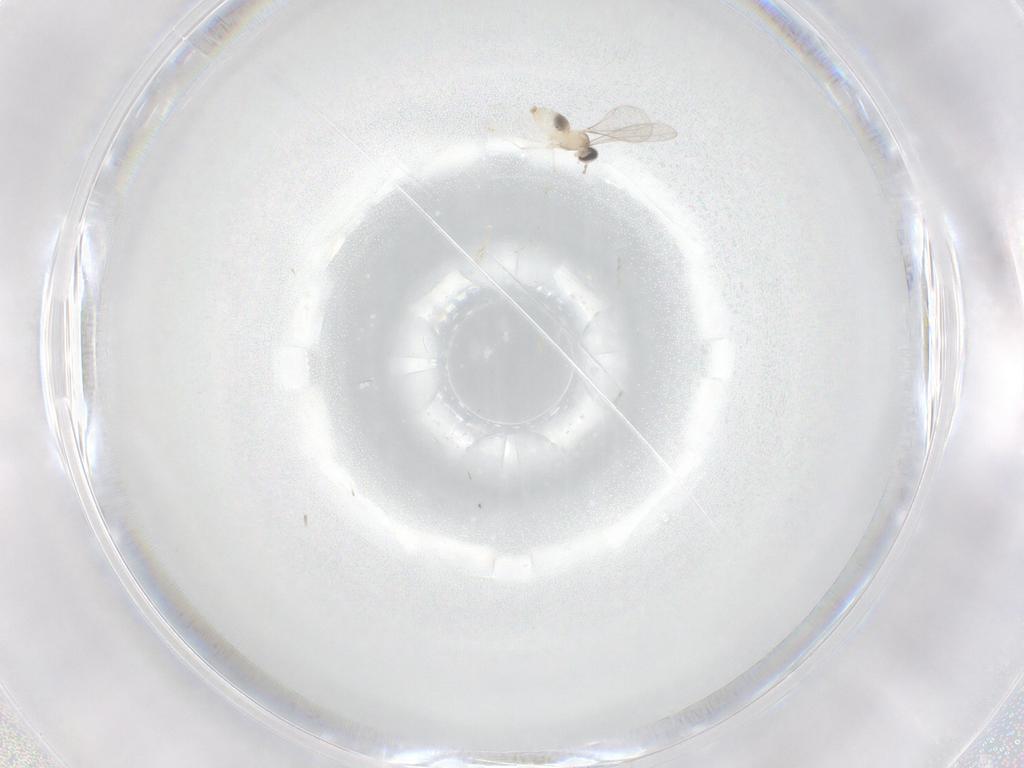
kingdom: Animalia
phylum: Arthropoda
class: Insecta
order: Diptera
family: Cecidomyiidae
